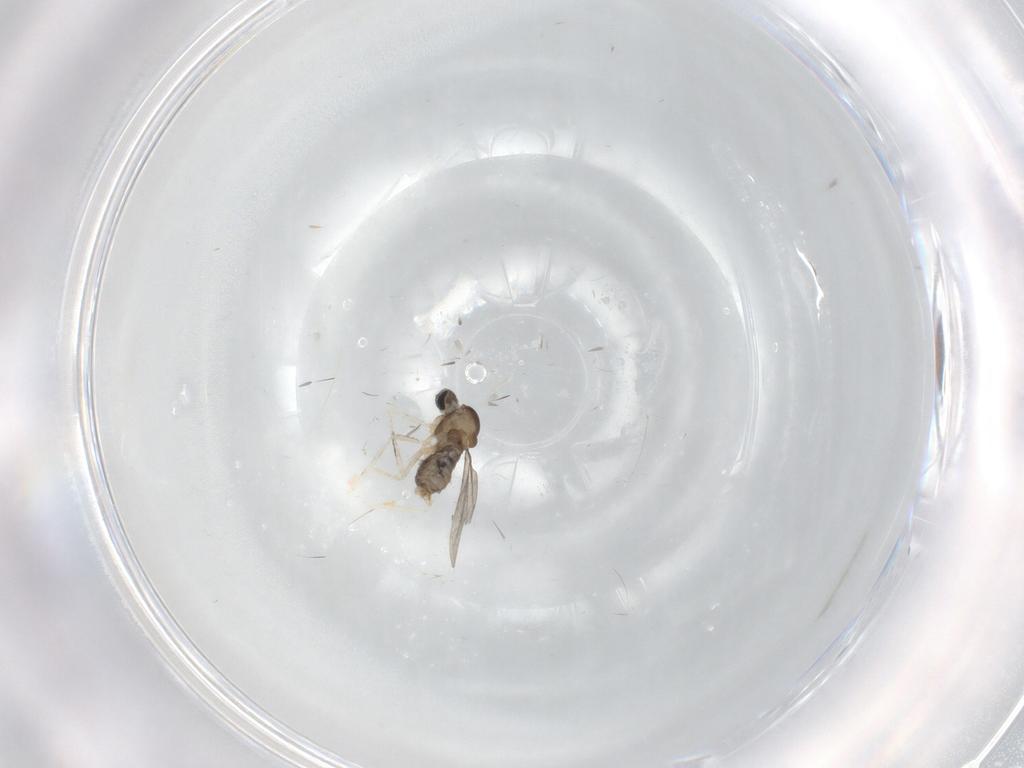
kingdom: Animalia
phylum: Arthropoda
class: Insecta
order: Diptera
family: Cecidomyiidae
